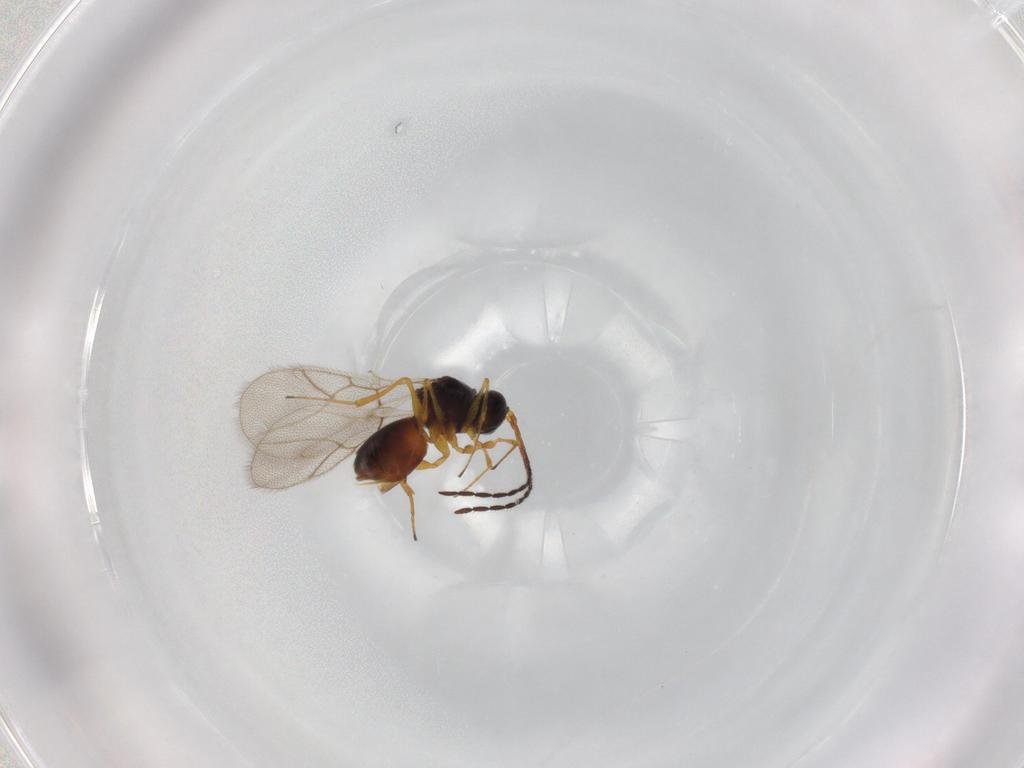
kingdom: Animalia
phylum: Arthropoda
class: Insecta
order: Hymenoptera
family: Figitidae
